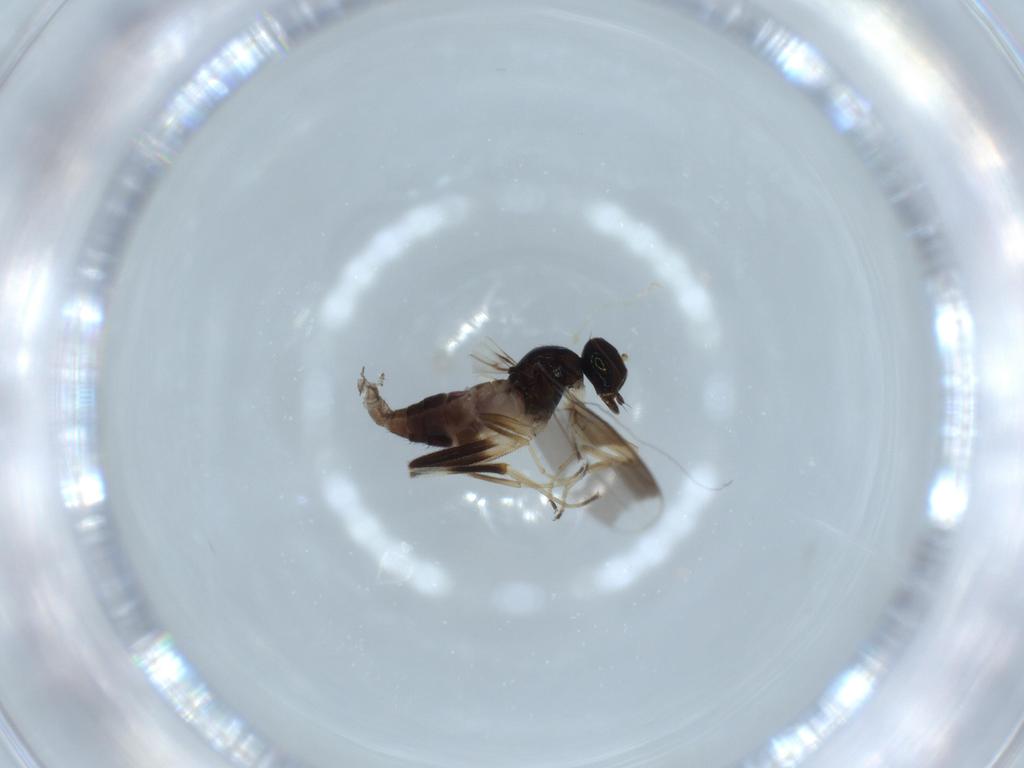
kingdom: Animalia
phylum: Arthropoda
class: Insecta
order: Diptera
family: Hybotidae
